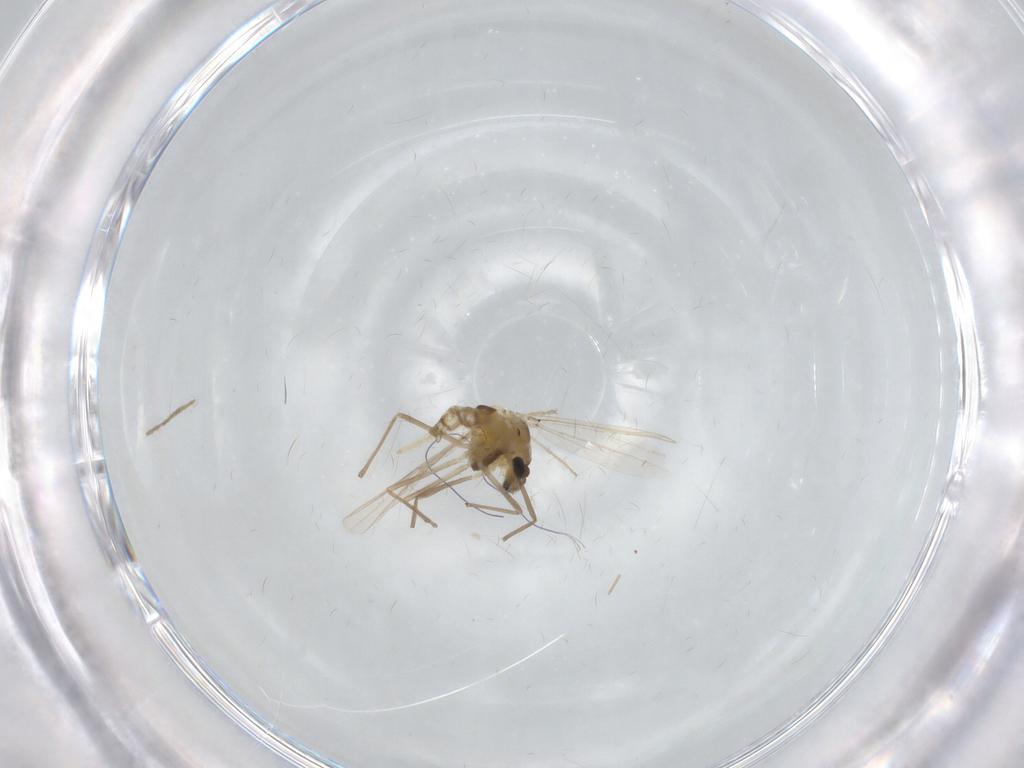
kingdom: Animalia
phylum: Arthropoda
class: Insecta
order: Diptera
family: Chironomidae
